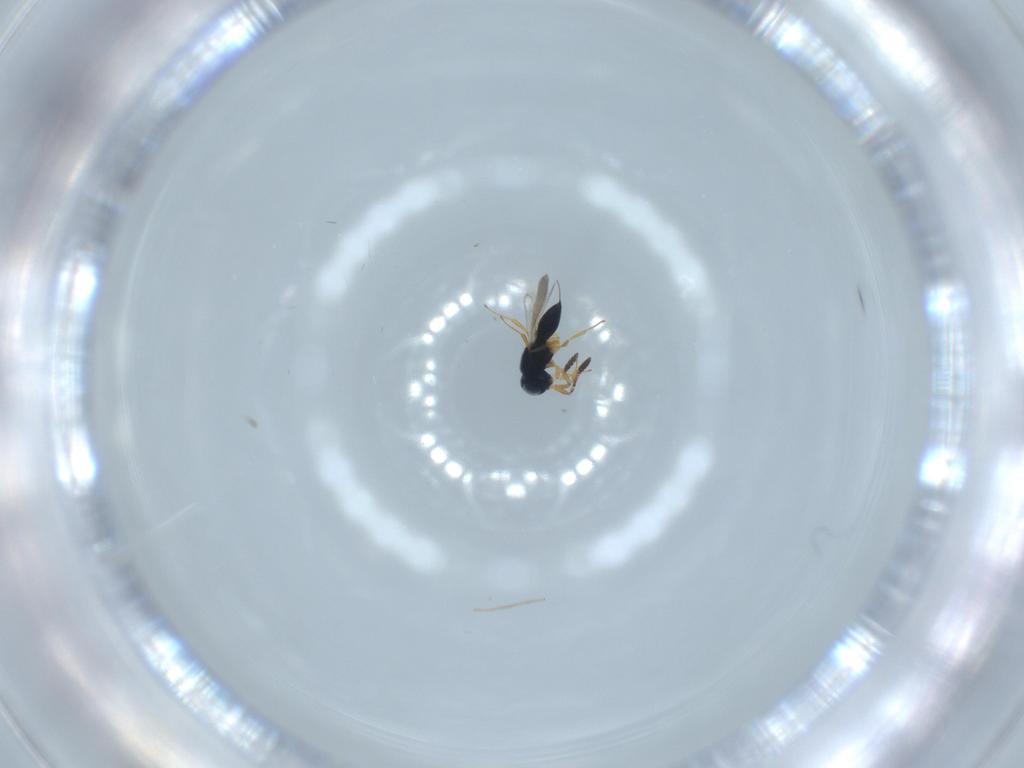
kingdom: Animalia
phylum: Arthropoda
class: Insecta
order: Hymenoptera
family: Scelionidae
